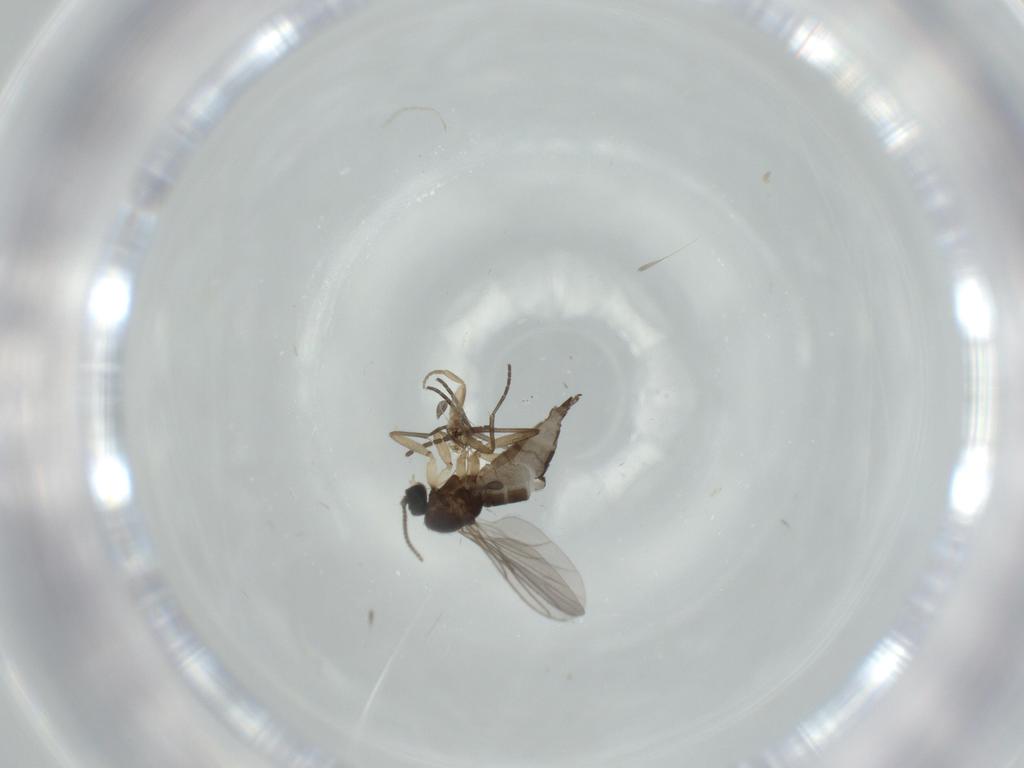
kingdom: Animalia
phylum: Arthropoda
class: Insecta
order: Diptera
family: Sciaridae
